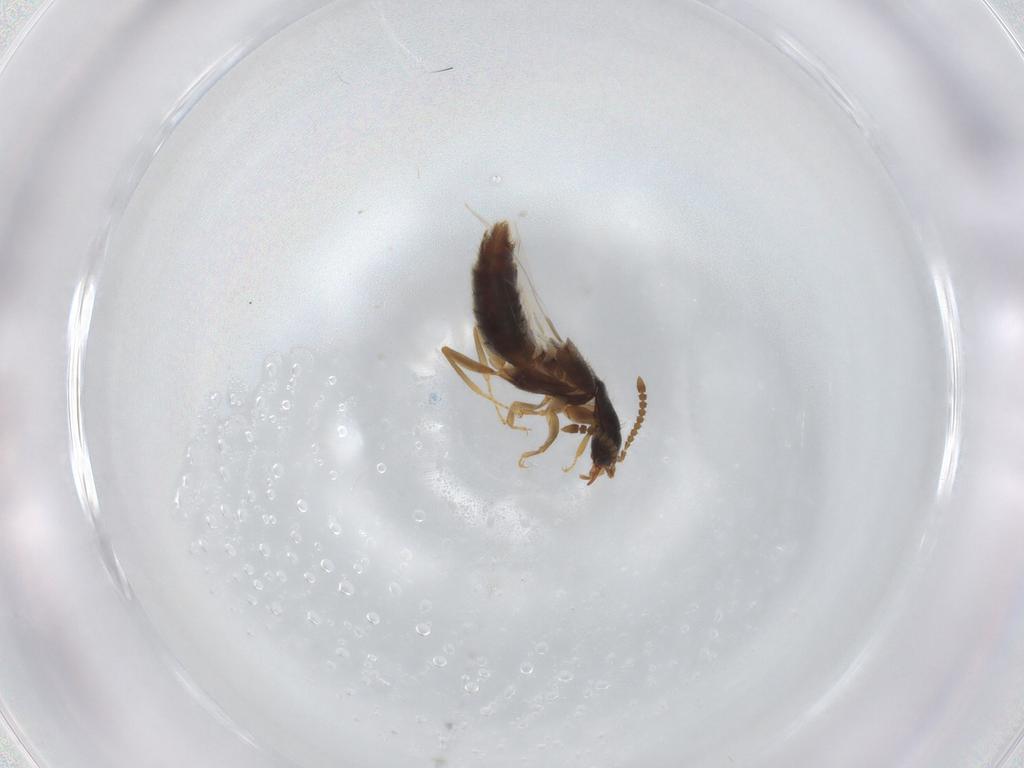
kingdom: Animalia
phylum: Arthropoda
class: Insecta
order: Coleoptera
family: Staphylinidae
